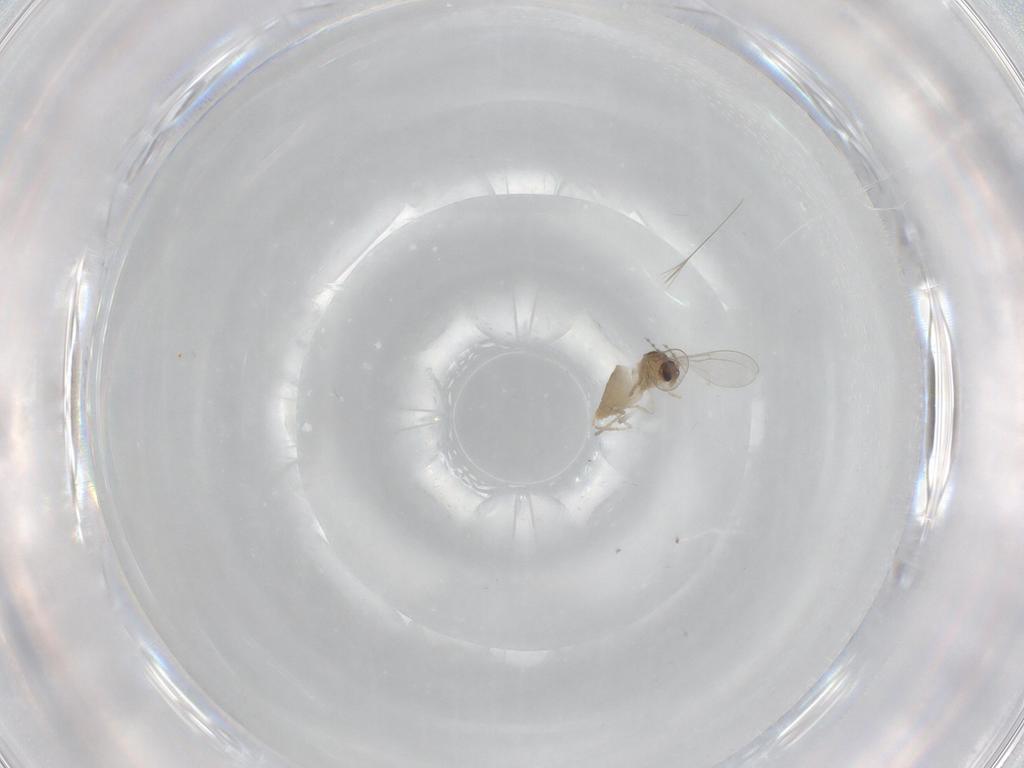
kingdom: Animalia
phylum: Arthropoda
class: Insecta
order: Diptera
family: Cecidomyiidae
